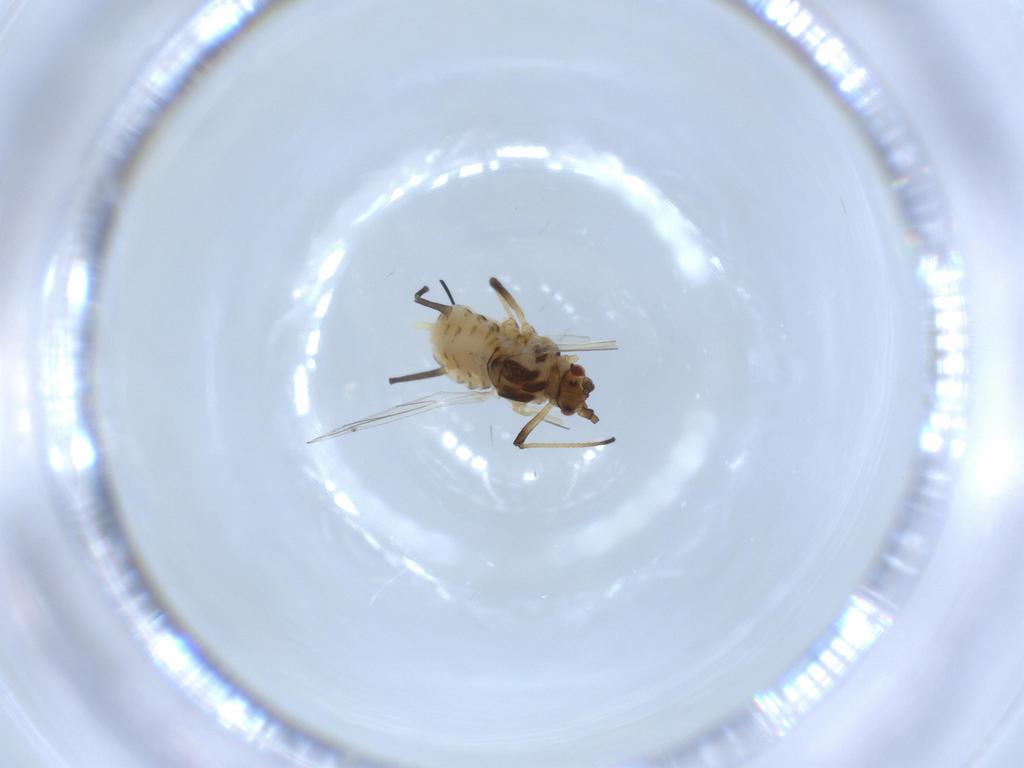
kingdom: Animalia
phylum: Arthropoda
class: Insecta
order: Hemiptera
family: Aphididae
